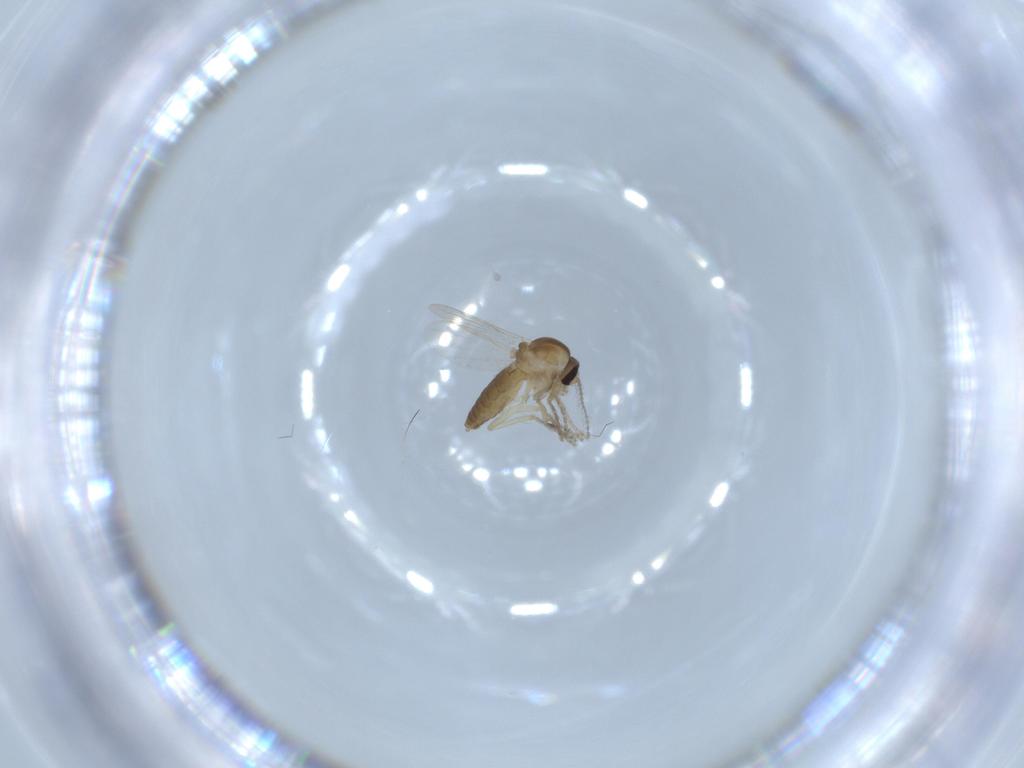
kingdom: Animalia
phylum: Arthropoda
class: Insecta
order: Diptera
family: Ceratopogonidae
